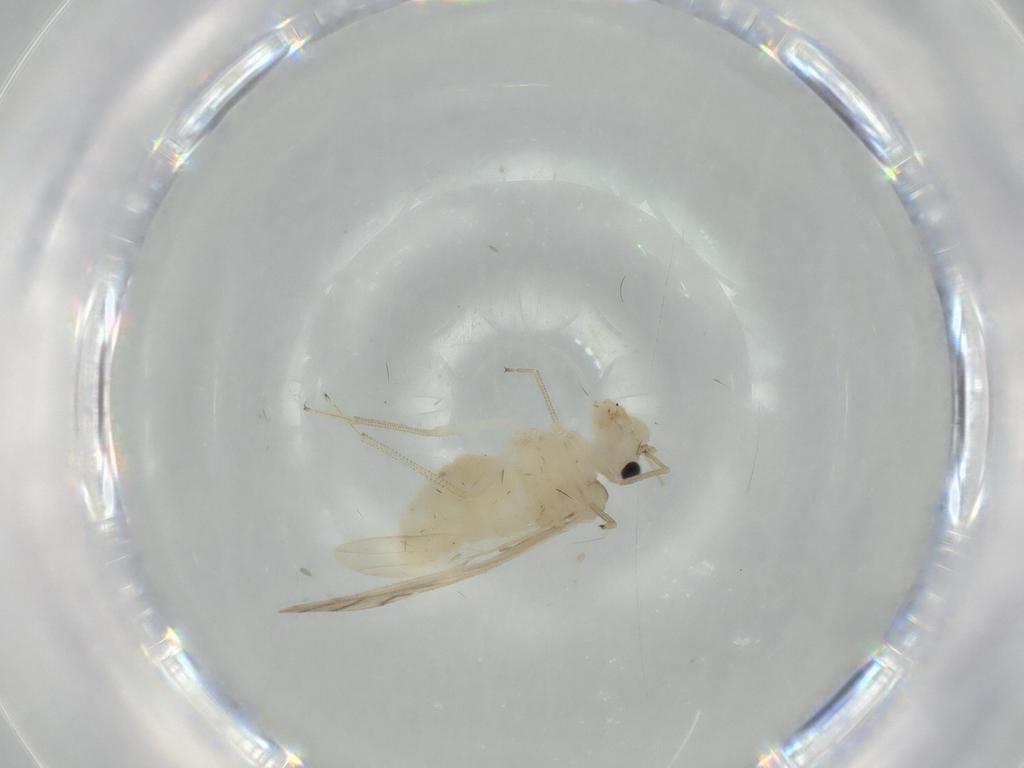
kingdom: Animalia
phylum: Arthropoda
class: Insecta
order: Psocodea
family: Caeciliusidae
